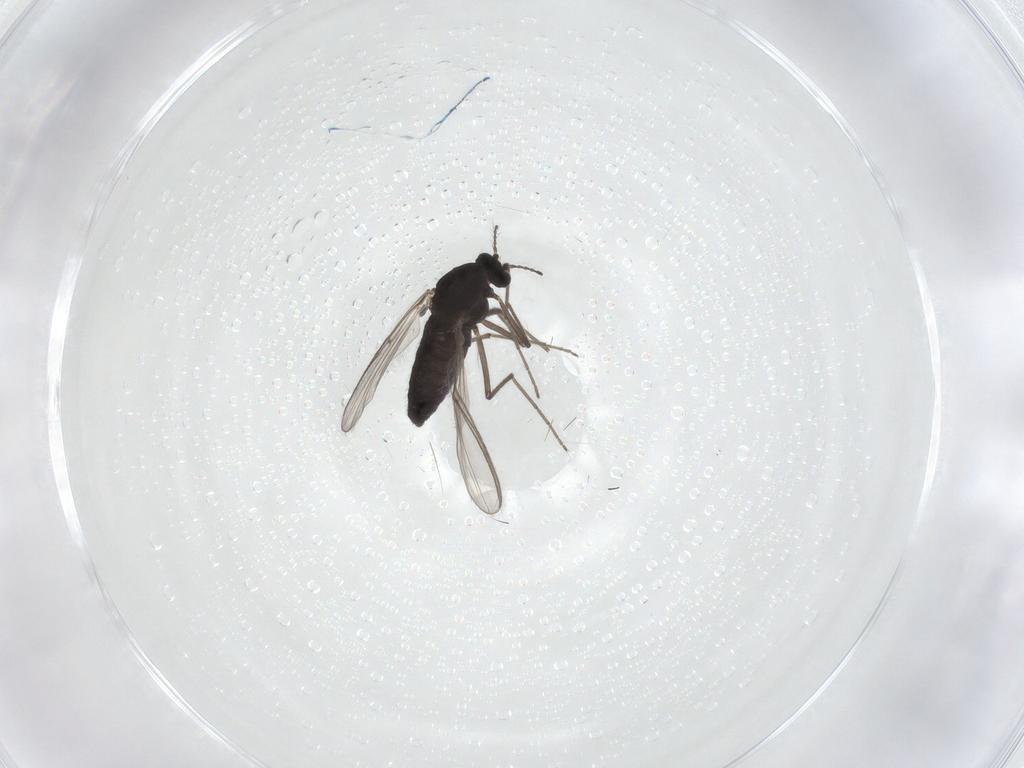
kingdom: Animalia
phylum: Arthropoda
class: Insecta
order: Diptera
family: Chironomidae
